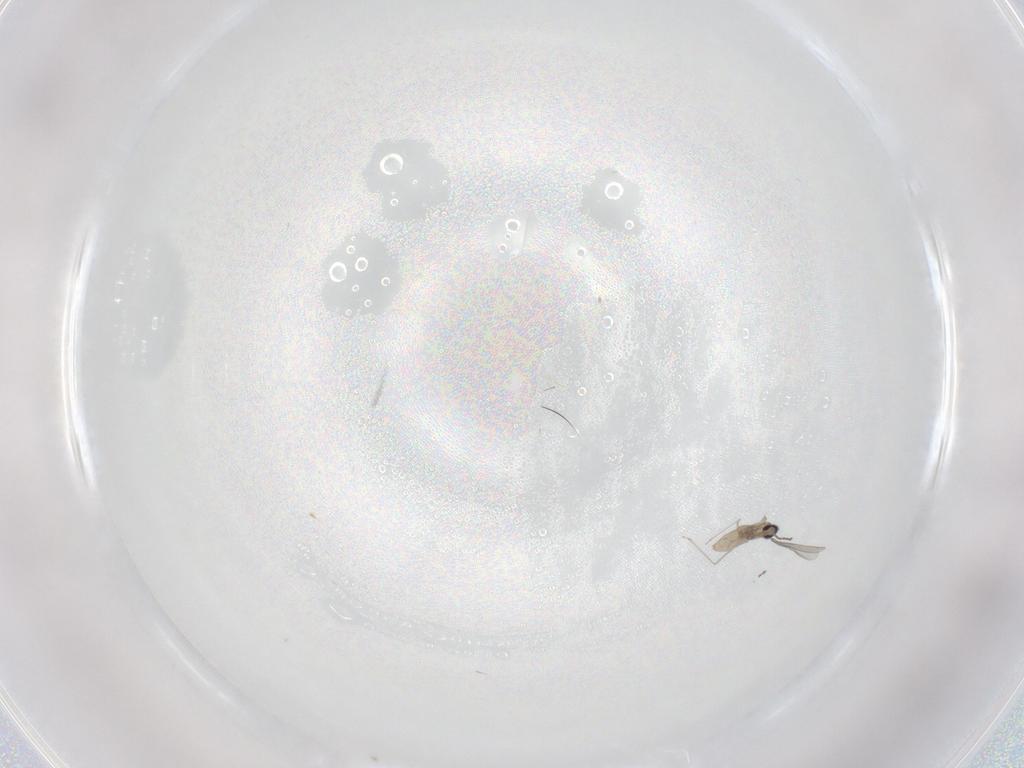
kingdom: Animalia
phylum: Arthropoda
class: Insecta
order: Diptera
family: Cecidomyiidae
